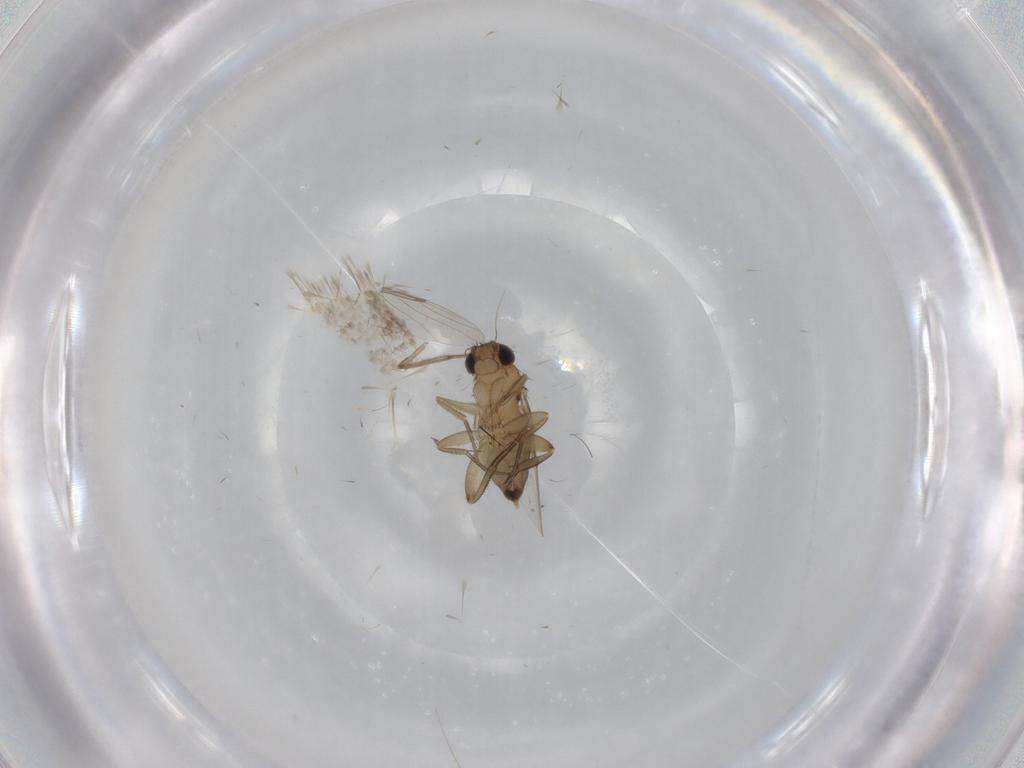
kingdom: Animalia
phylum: Arthropoda
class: Insecta
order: Diptera
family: Phoridae
